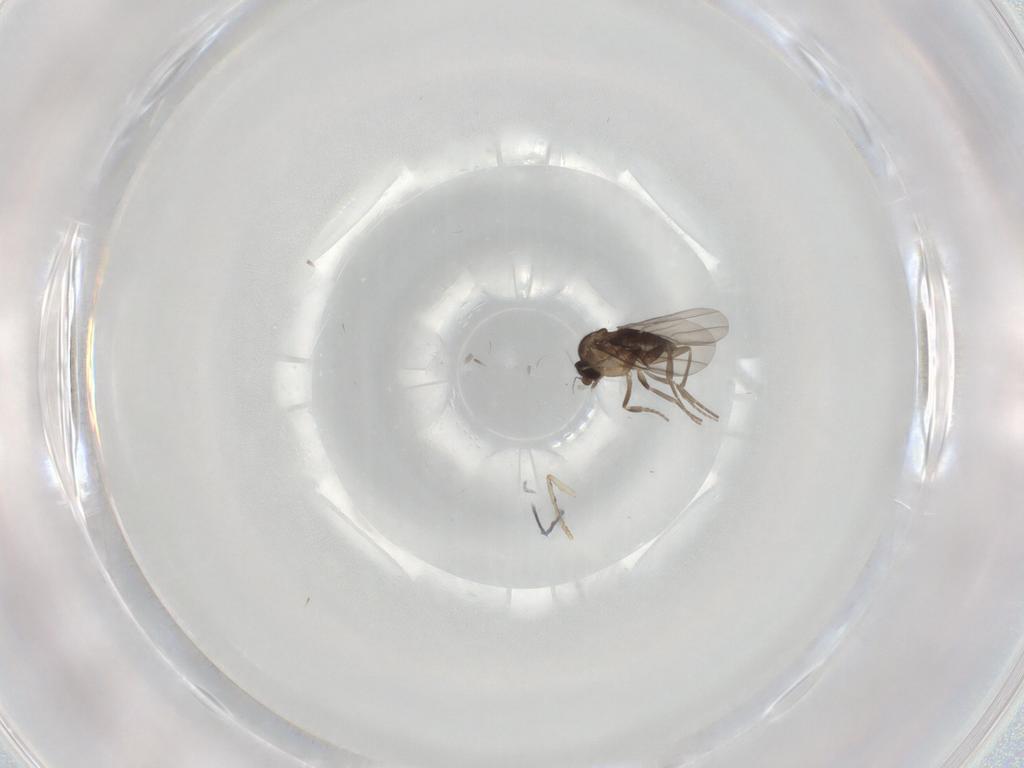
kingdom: Animalia
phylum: Arthropoda
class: Insecta
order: Diptera
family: Phoridae
